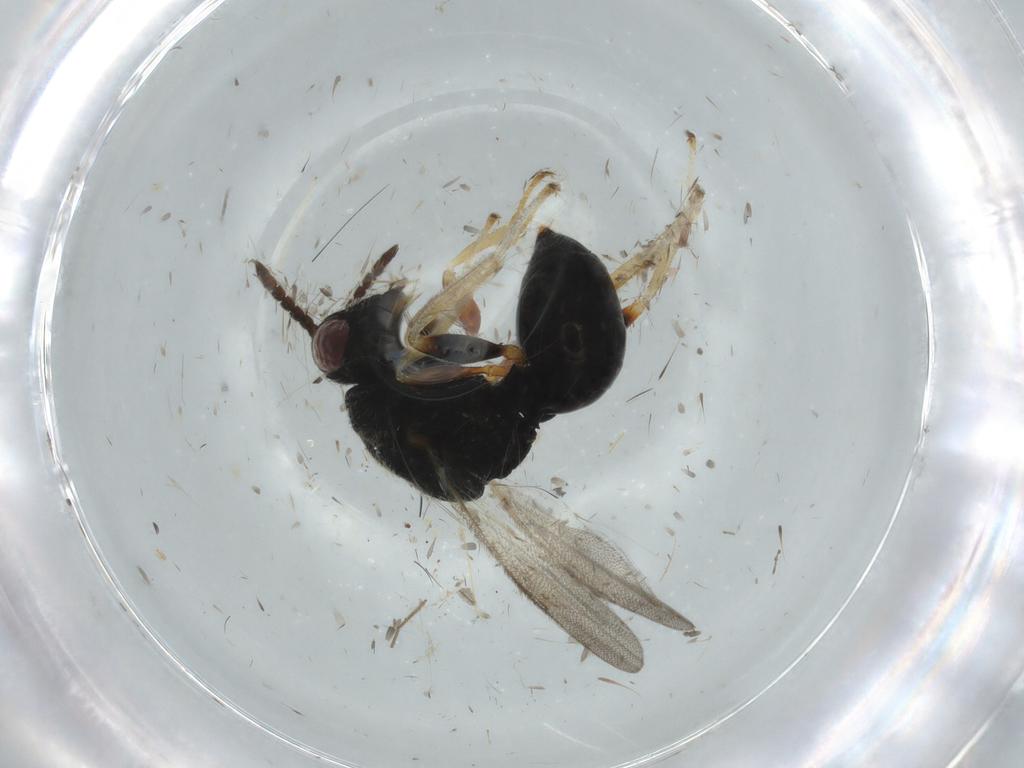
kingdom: Animalia
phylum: Arthropoda
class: Insecta
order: Hymenoptera
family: Bethylidae
